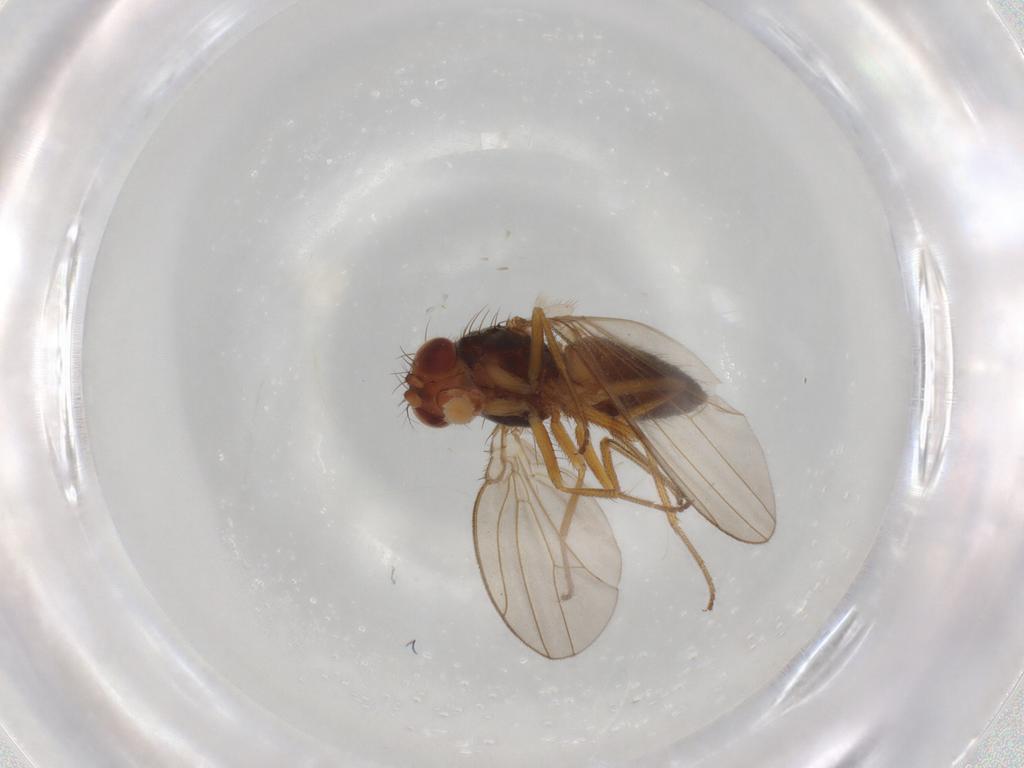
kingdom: Animalia
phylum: Arthropoda
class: Insecta
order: Diptera
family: Drosophilidae
